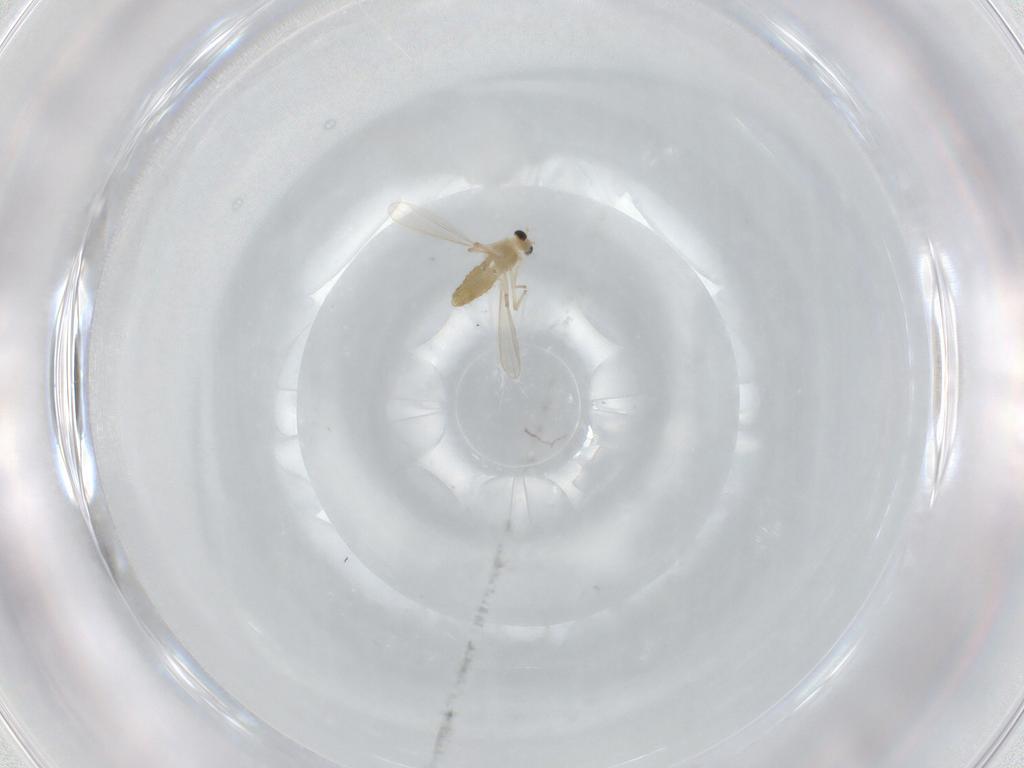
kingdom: Animalia
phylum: Arthropoda
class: Insecta
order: Diptera
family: Chironomidae
